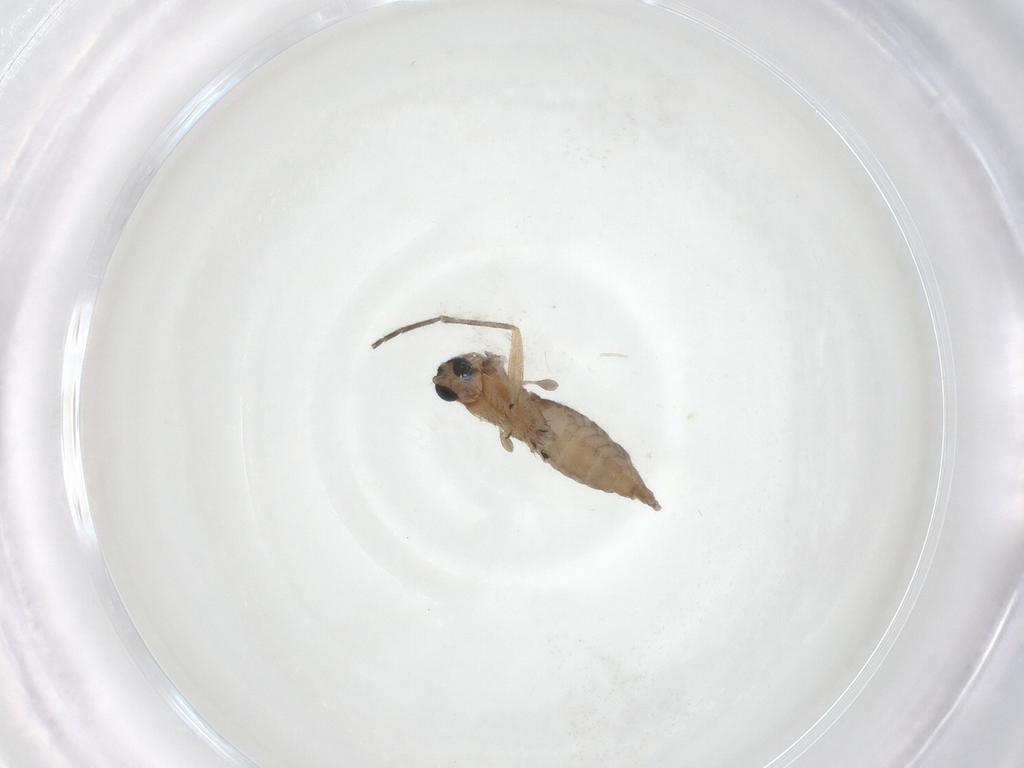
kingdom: Animalia
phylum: Arthropoda
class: Insecta
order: Diptera
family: Sciaridae
